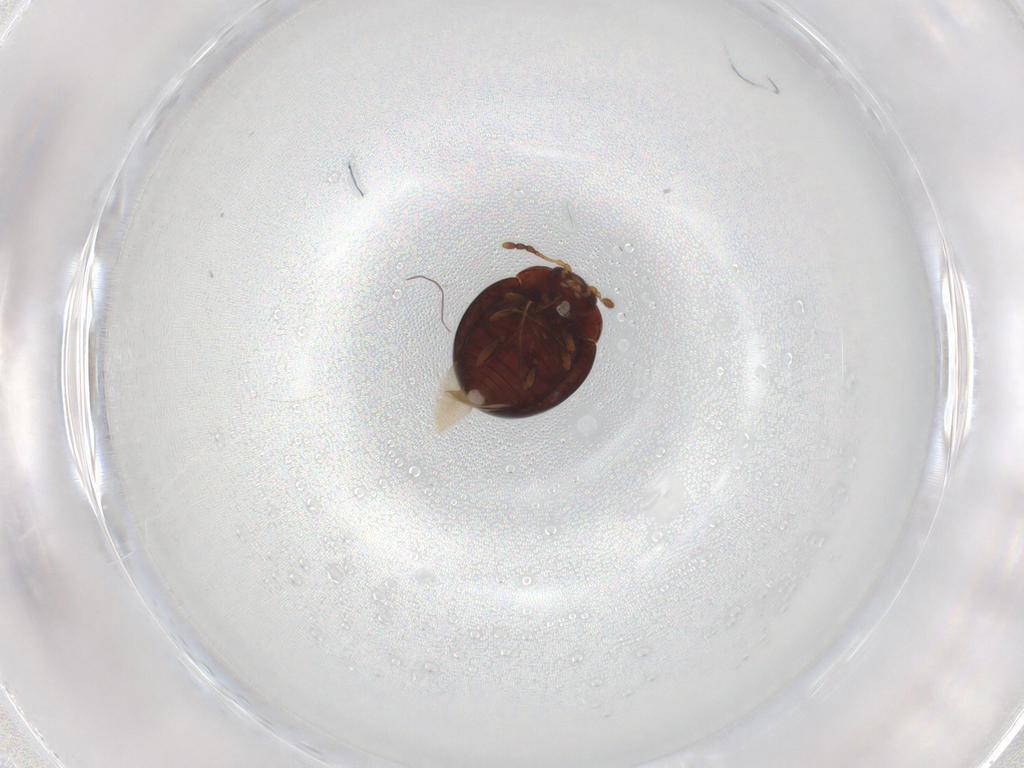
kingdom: Animalia
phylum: Arthropoda
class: Insecta
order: Coleoptera
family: Anamorphidae
